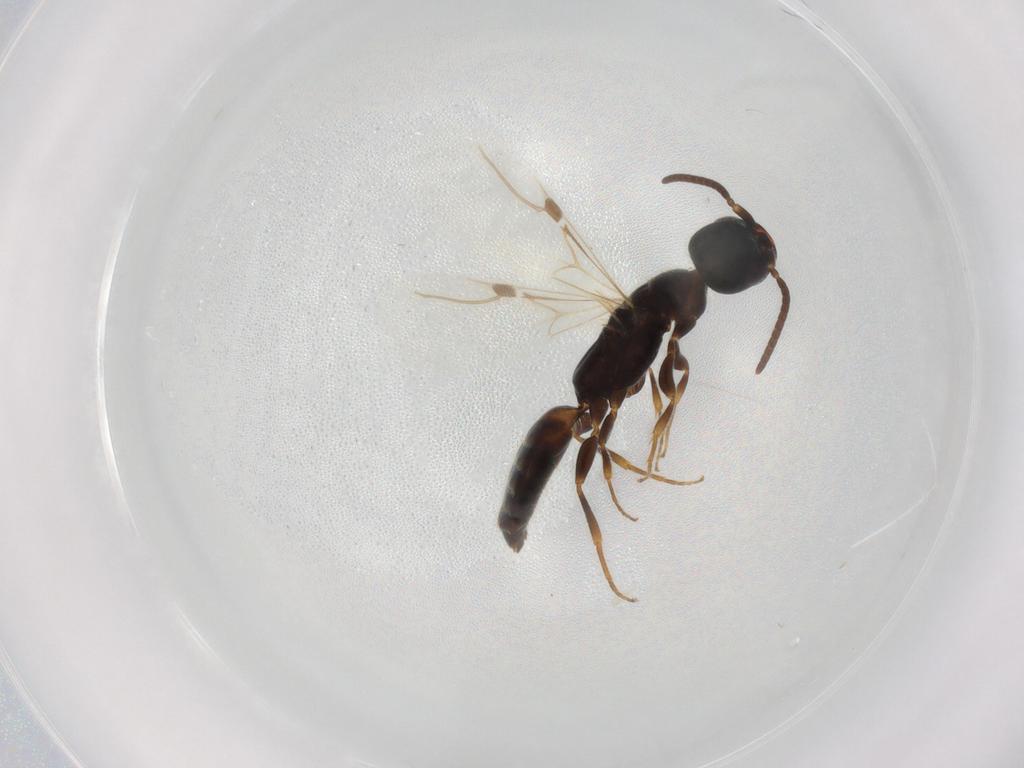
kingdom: Animalia
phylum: Arthropoda
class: Insecta
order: Hymenoptera
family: Bethylidae
